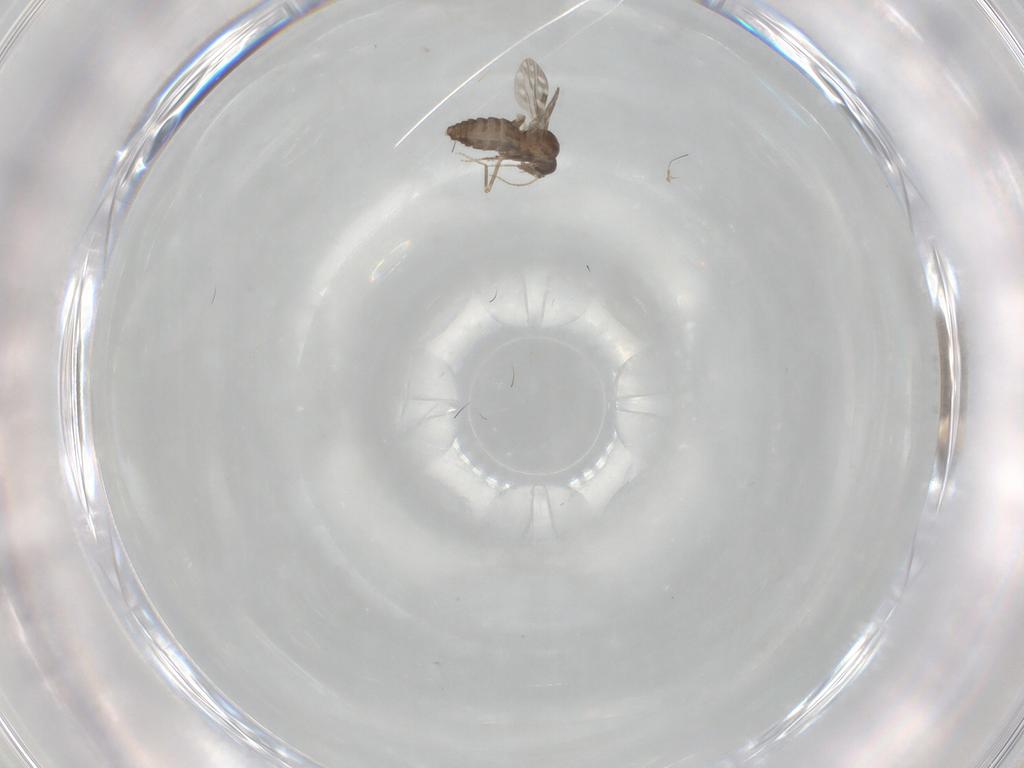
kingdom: Animalia
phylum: Arthropoda
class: Insecta
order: Diptera
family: Ceratopogonidae
